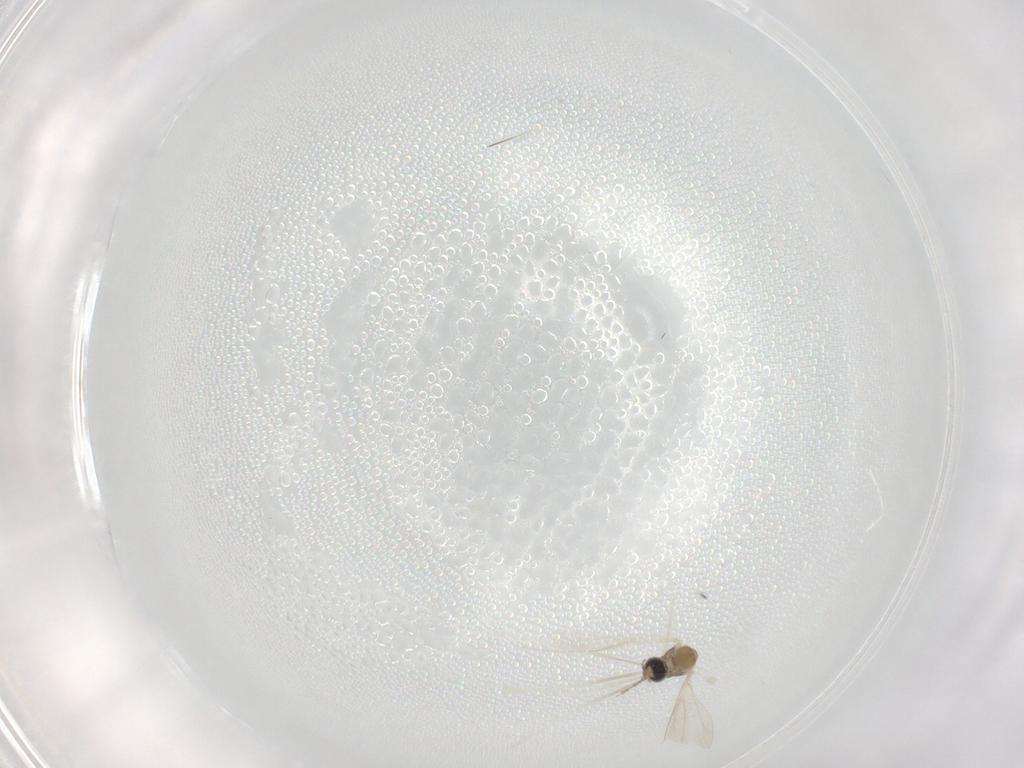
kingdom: Animalia
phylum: Arthropoda
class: Insecta
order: Diptera
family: Cecidomyiidae
